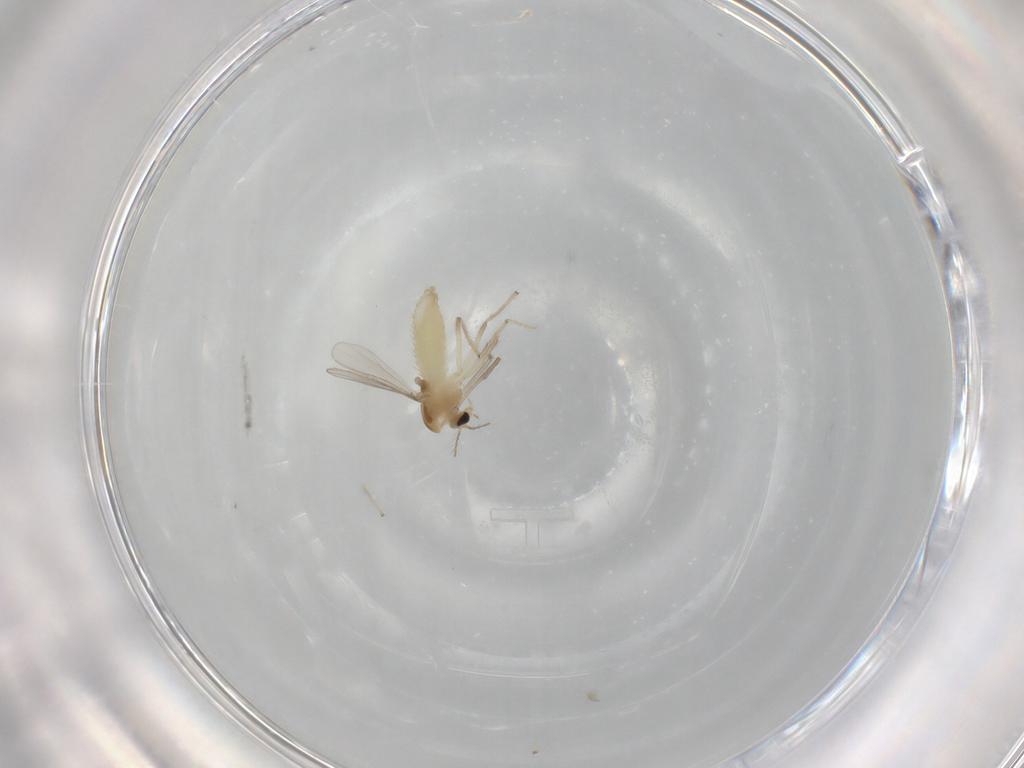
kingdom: Animalia
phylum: Arthropoda
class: Insecta
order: Diptera
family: Chironomidae
